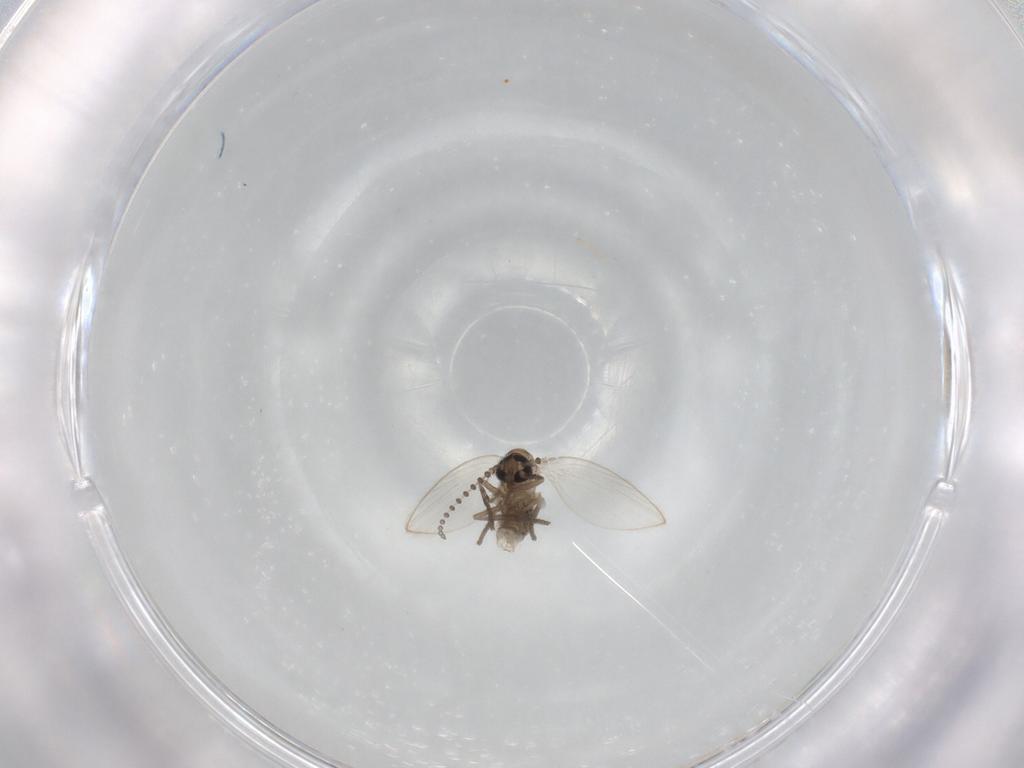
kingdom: Animalia
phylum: Arthropoda
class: Insecta
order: Diptera
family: Psychodidae
